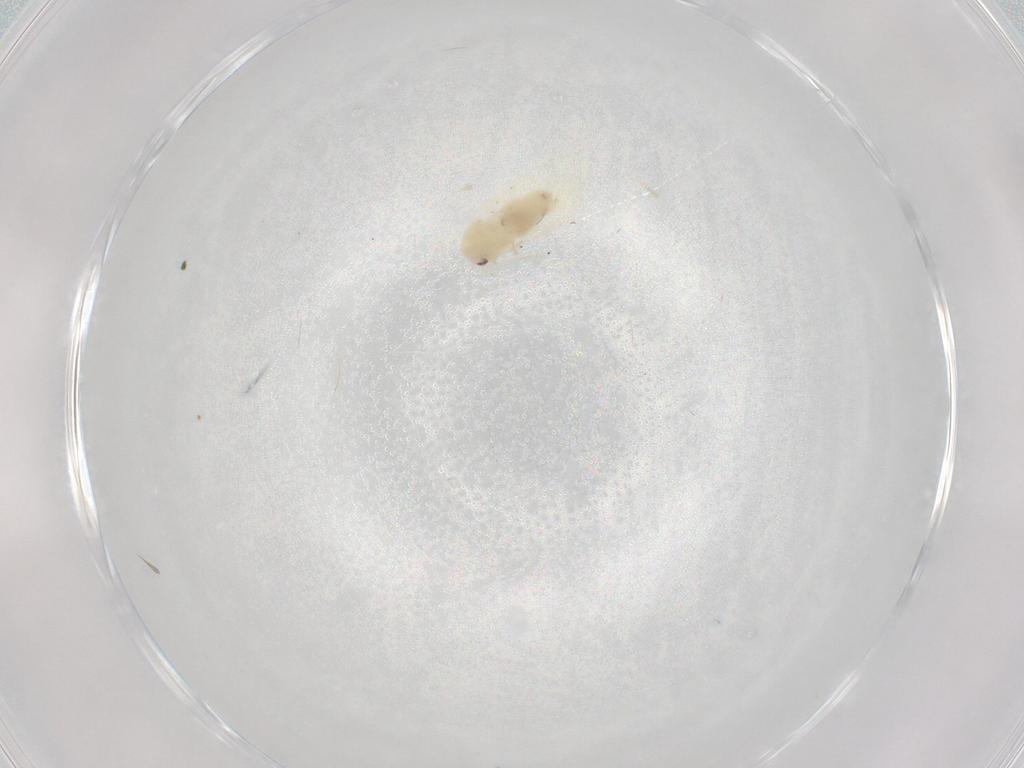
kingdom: Animalia
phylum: Arthropoda
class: Insecta
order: Hemiptera
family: Aleyrodidae
